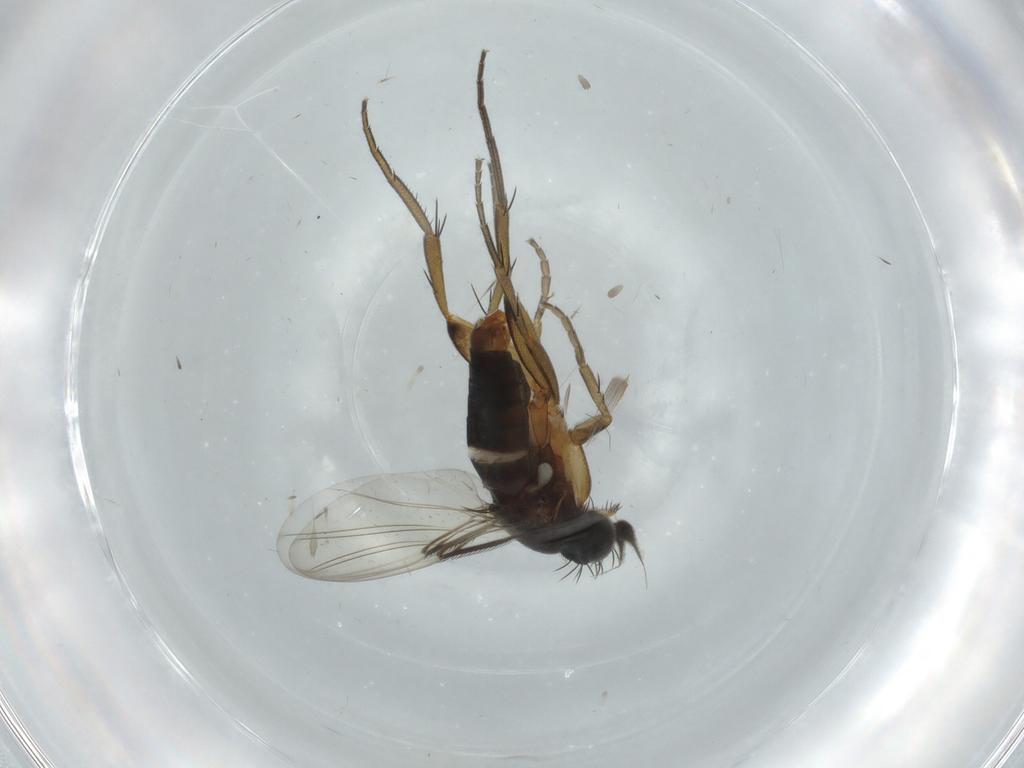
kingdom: Animalia
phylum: Arthropoda
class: Insecta
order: Diptera
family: Phoridae
